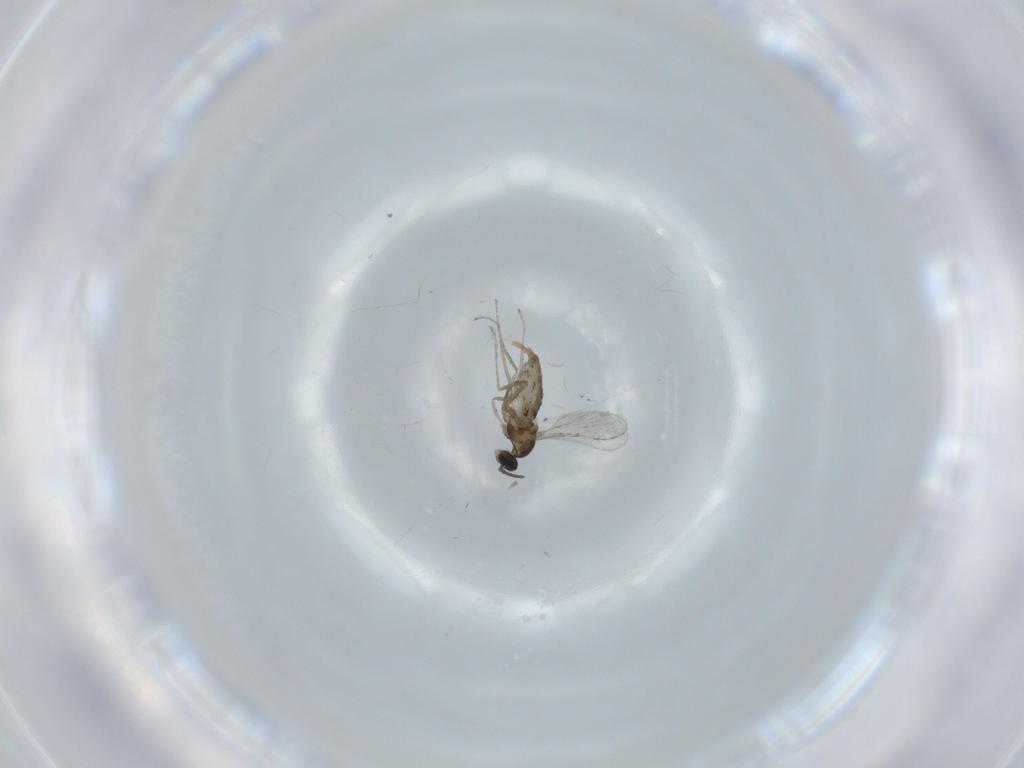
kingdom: Animalia
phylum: Arthropoda
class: Insecta
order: Diptera
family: Cecidomyiidae
